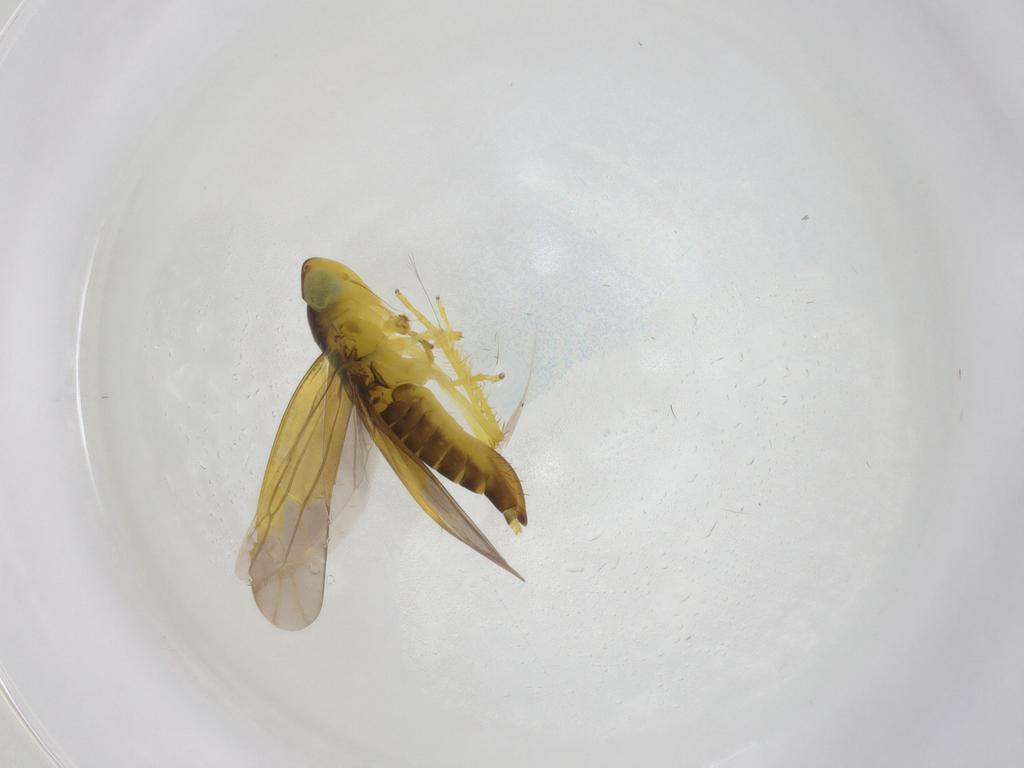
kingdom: Animalia
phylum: Arthropoda
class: Insecta
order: Hemiptera
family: Cicadellidae
